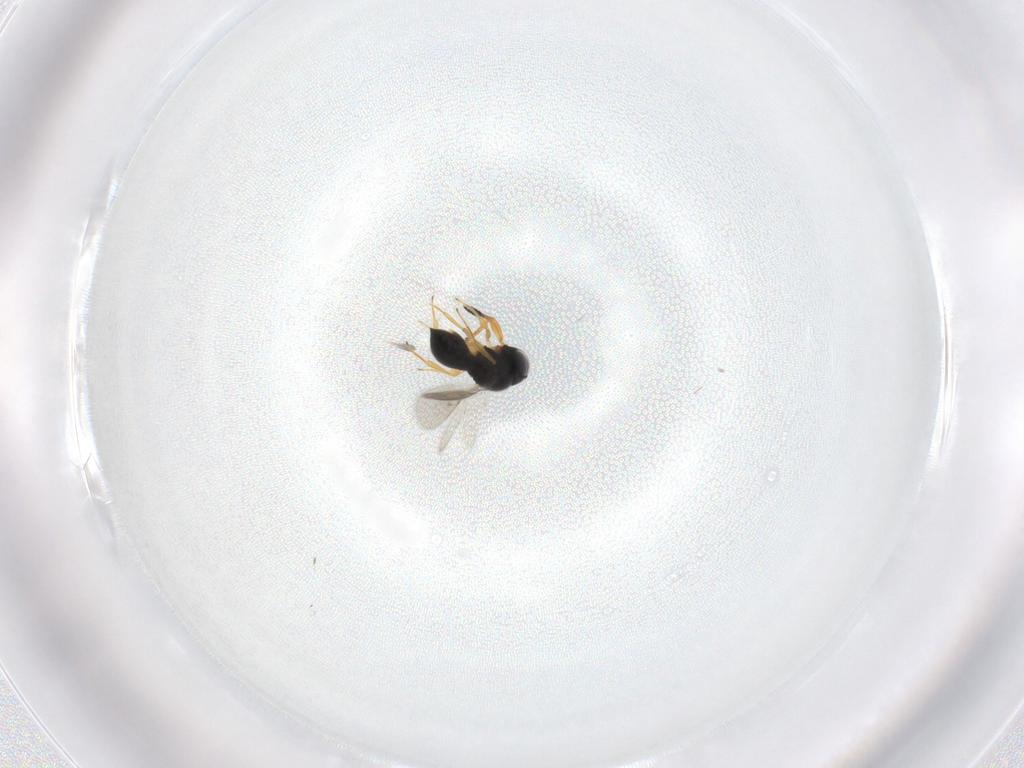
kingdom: Animalia
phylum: Arthropoda
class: Insecta
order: Hymenoptera
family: Scelionidae
